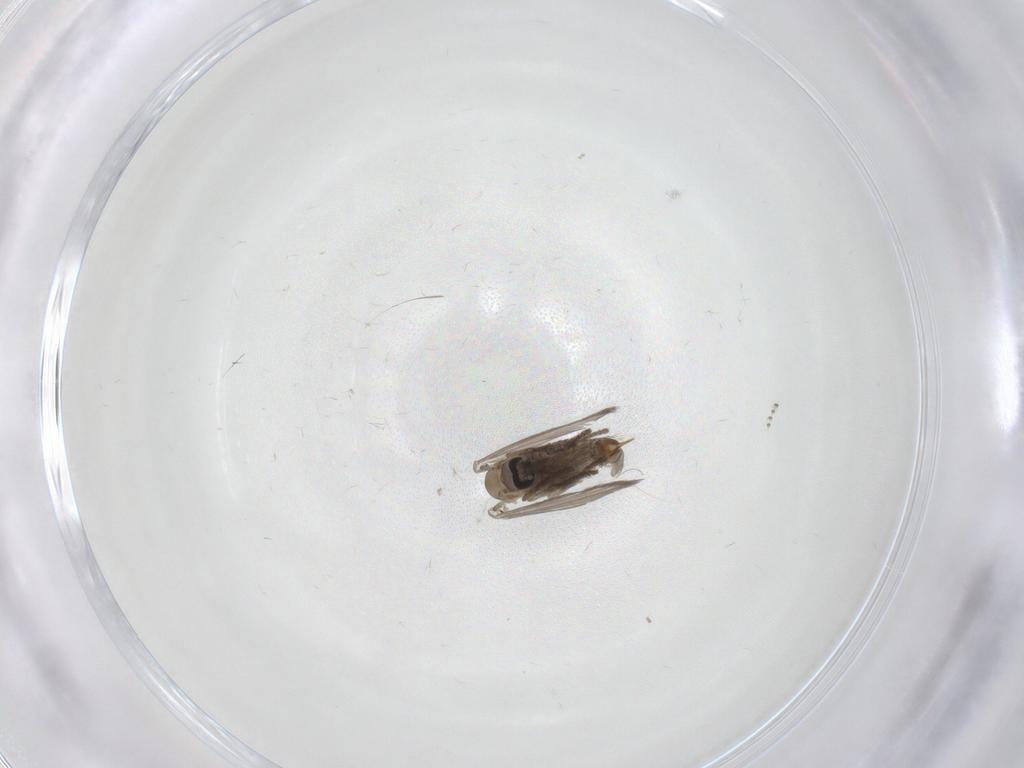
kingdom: Animalia
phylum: Arthropoda
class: Insecta
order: Diptera
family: Psychodidae
